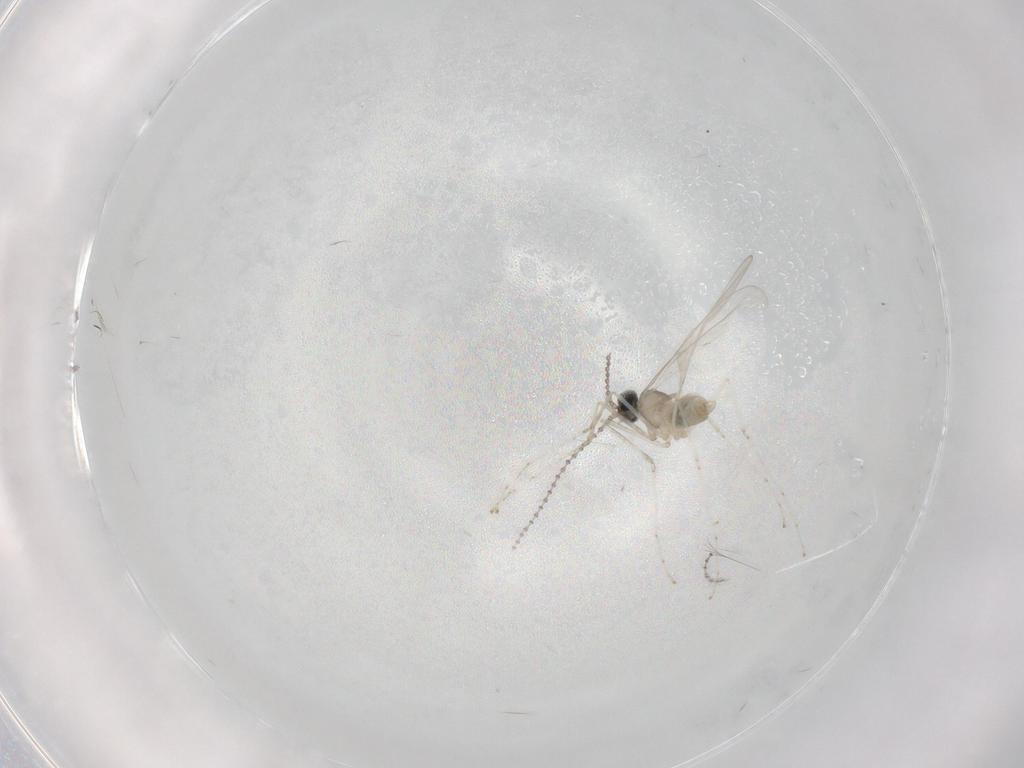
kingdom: Animalia
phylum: Arthropoda
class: Insecta
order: Diptera
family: Cecidomyiidae
